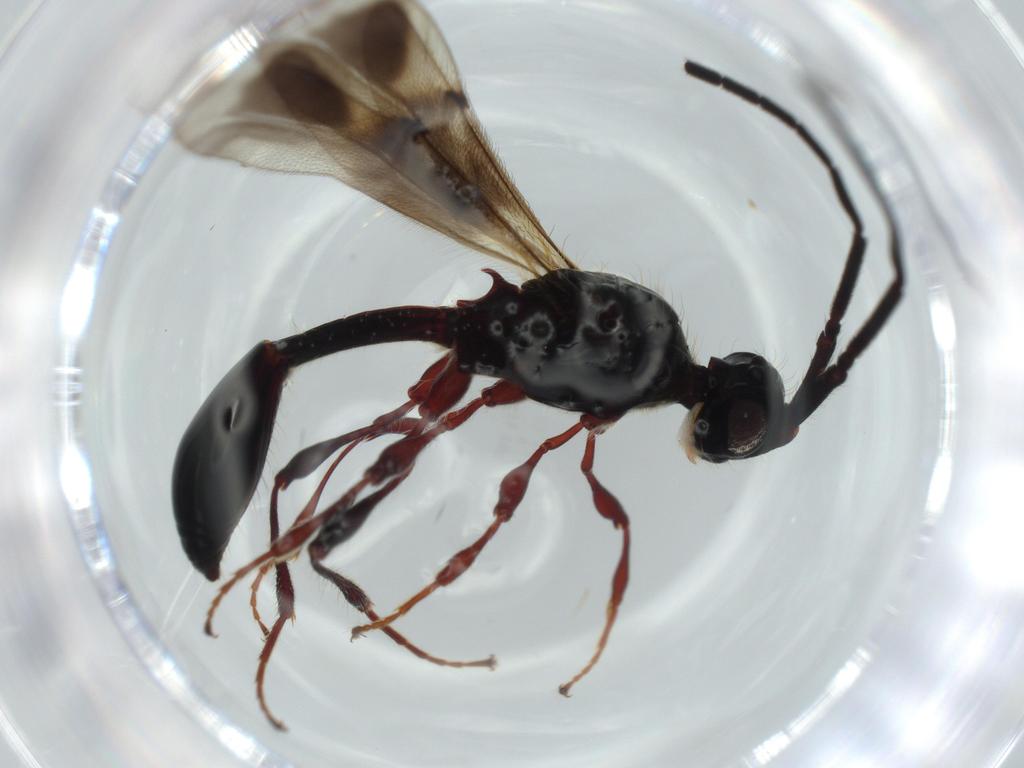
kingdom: Animalia
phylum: Arthropoda
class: Insecta
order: Hymenoptera
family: Diapriidae
